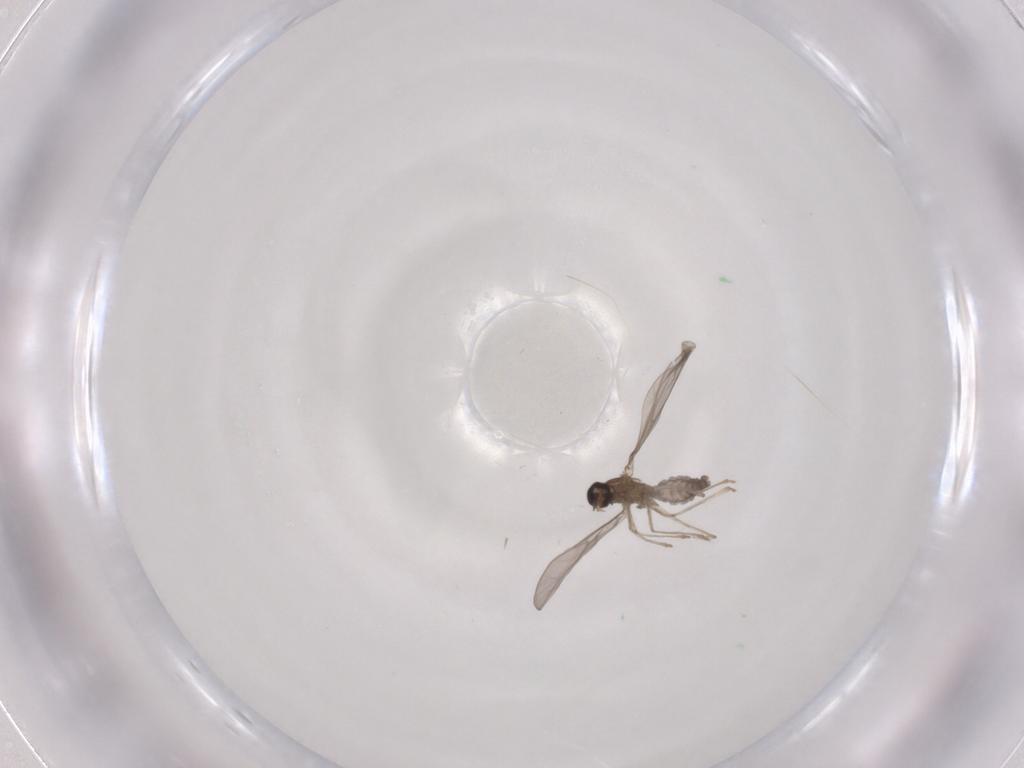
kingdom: Animalia
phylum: Arthropoda
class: Insecta
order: Diptera
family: Cecidomyiidae
